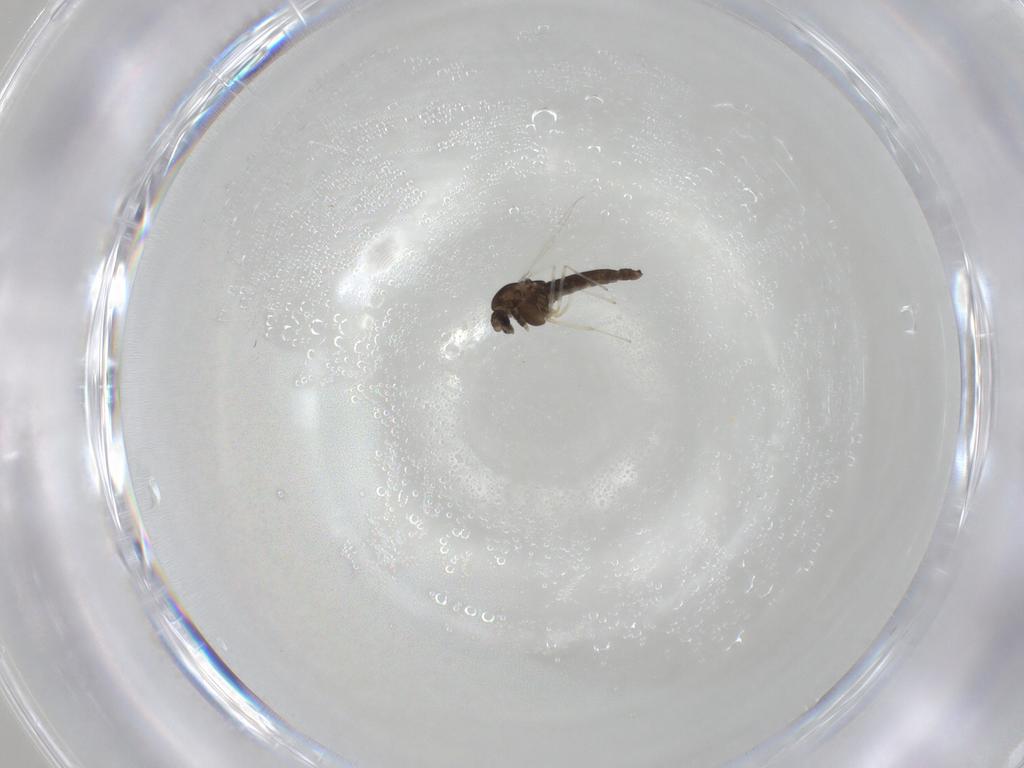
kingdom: Animalia
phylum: Arthropoda
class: Insecta
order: Diptera
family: Chironomidae
